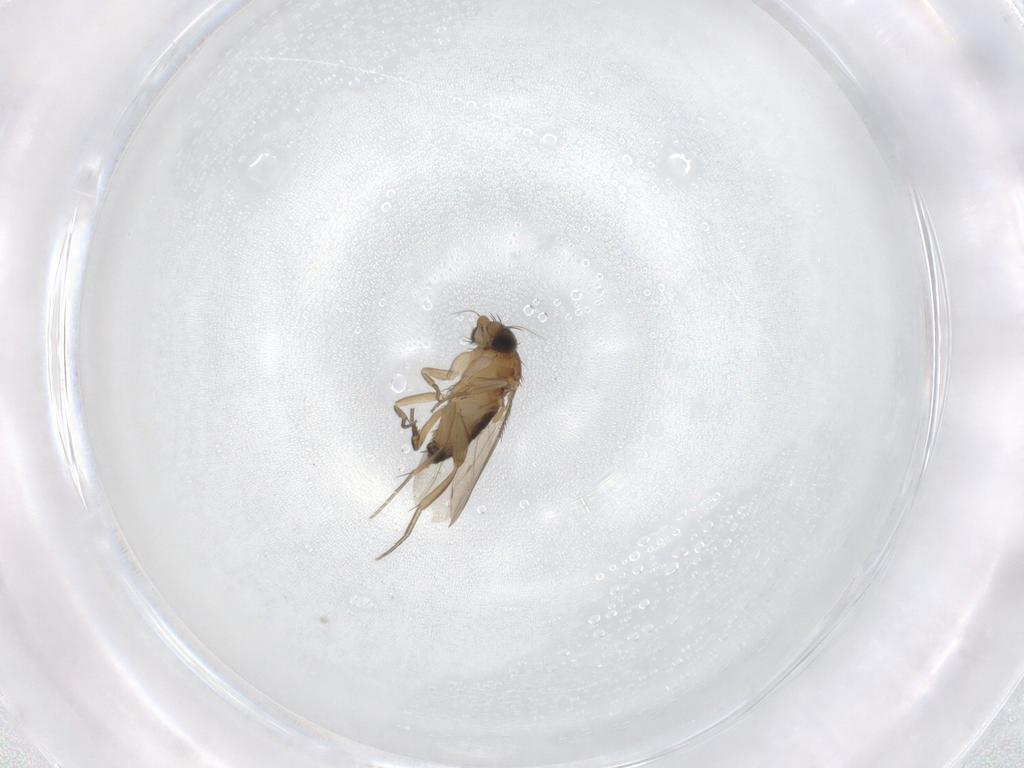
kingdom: Animalia
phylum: Arthropoda
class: Insecta
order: Diptera
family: Phoridae
